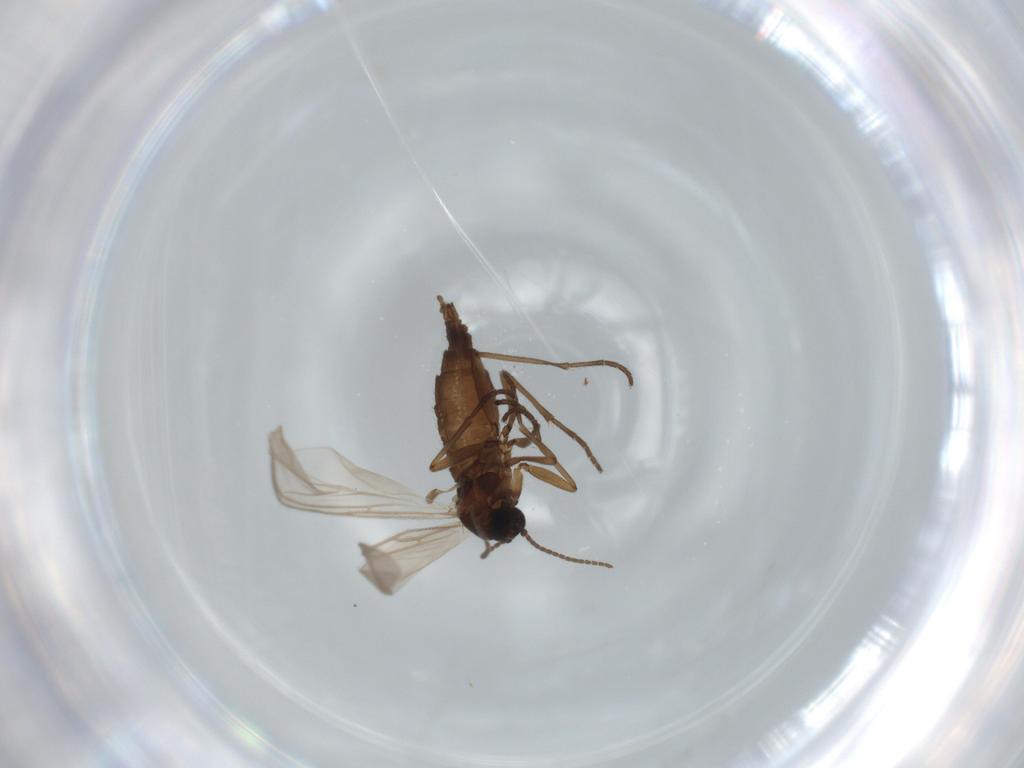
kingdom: Animalia
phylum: Arthropoda
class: Insecta
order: Diptera
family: Sciaridae
